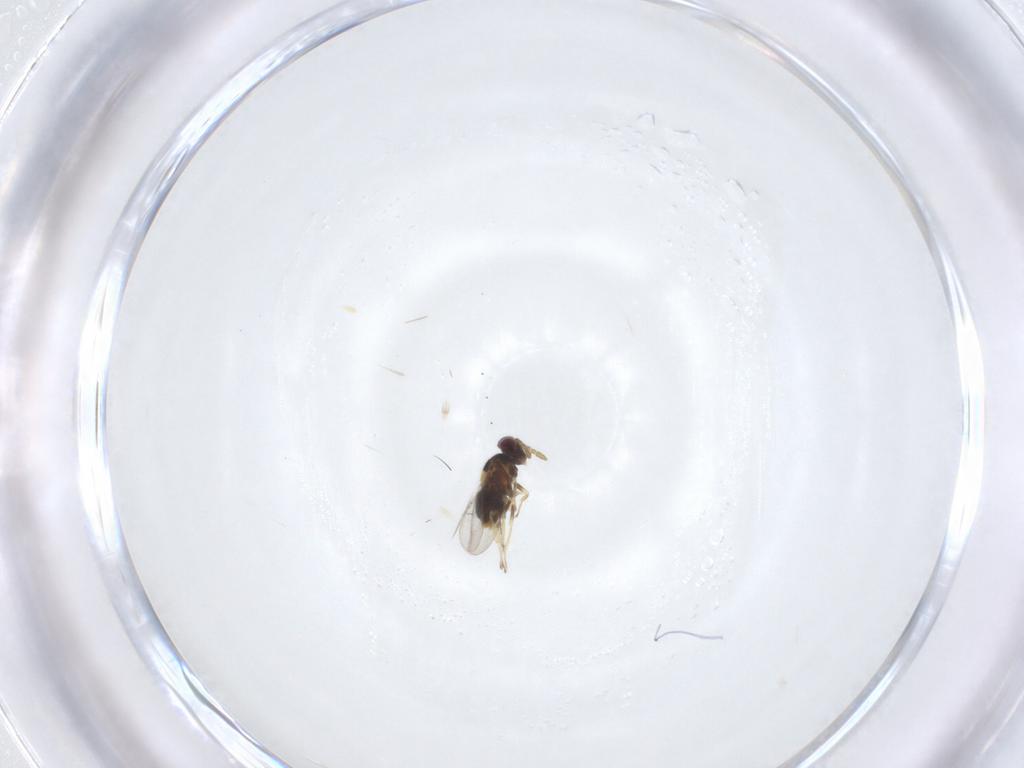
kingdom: Animalia
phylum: Arthropoda
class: Insecta
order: Hymenoptera
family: Aphelinidae
